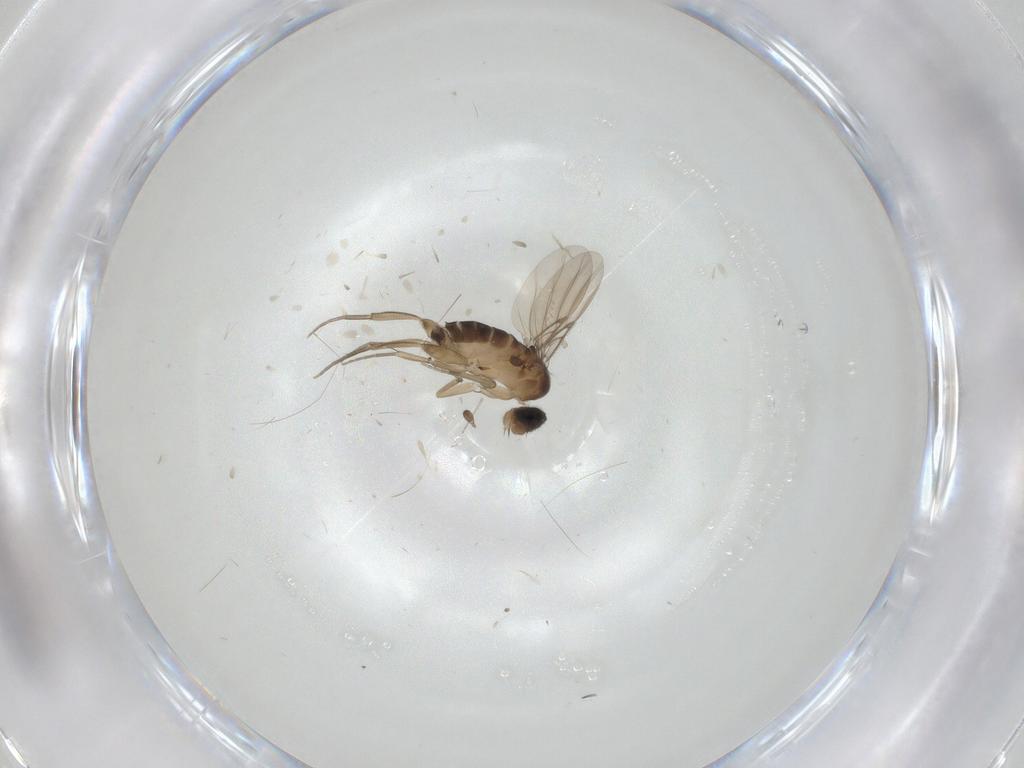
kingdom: Animalia
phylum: Arthropoda
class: Insecta
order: Diptera
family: Phoridae
